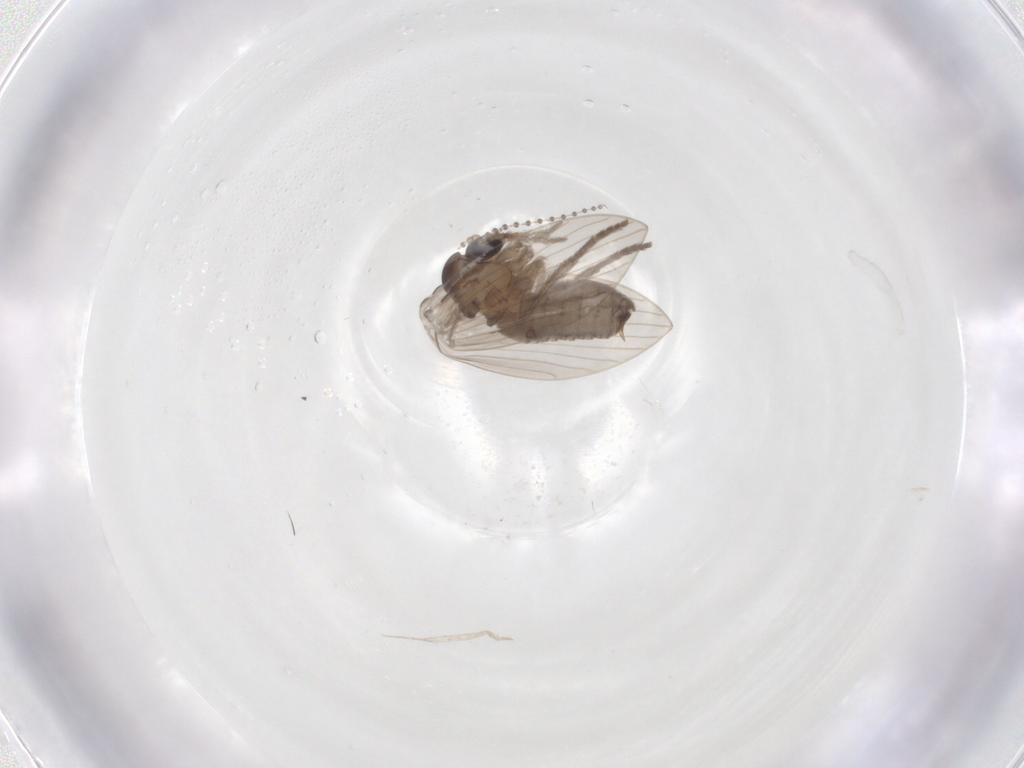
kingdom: Animalia
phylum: Arthropoda
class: Insecta
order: Diptera
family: Psychodidae
